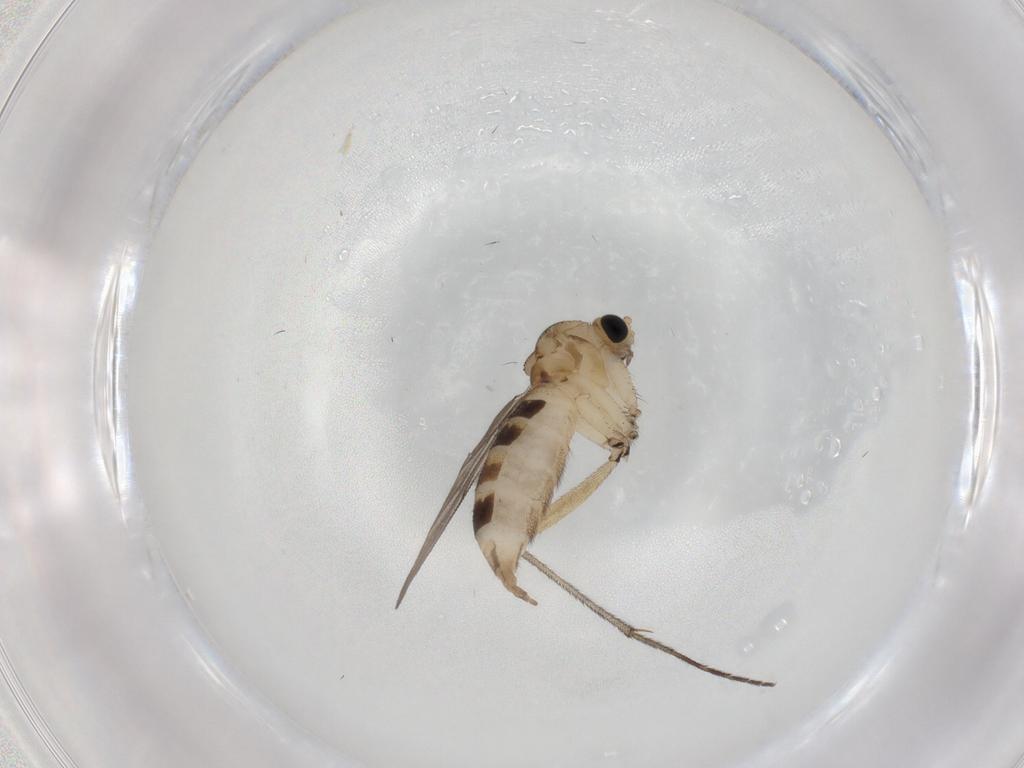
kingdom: Animalia
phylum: Arthropoda
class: Insecta
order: Diptera
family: Sciaridae
